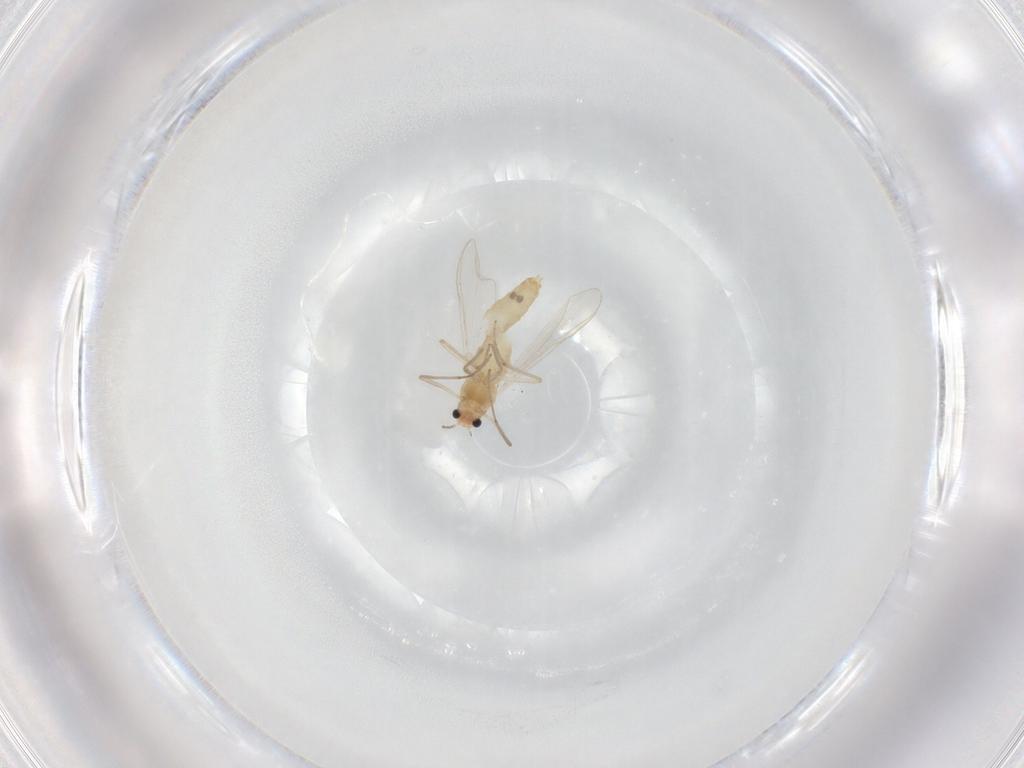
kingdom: Animalia
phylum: Arthropoda
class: Insecta
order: Diptera
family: Chironomidae
